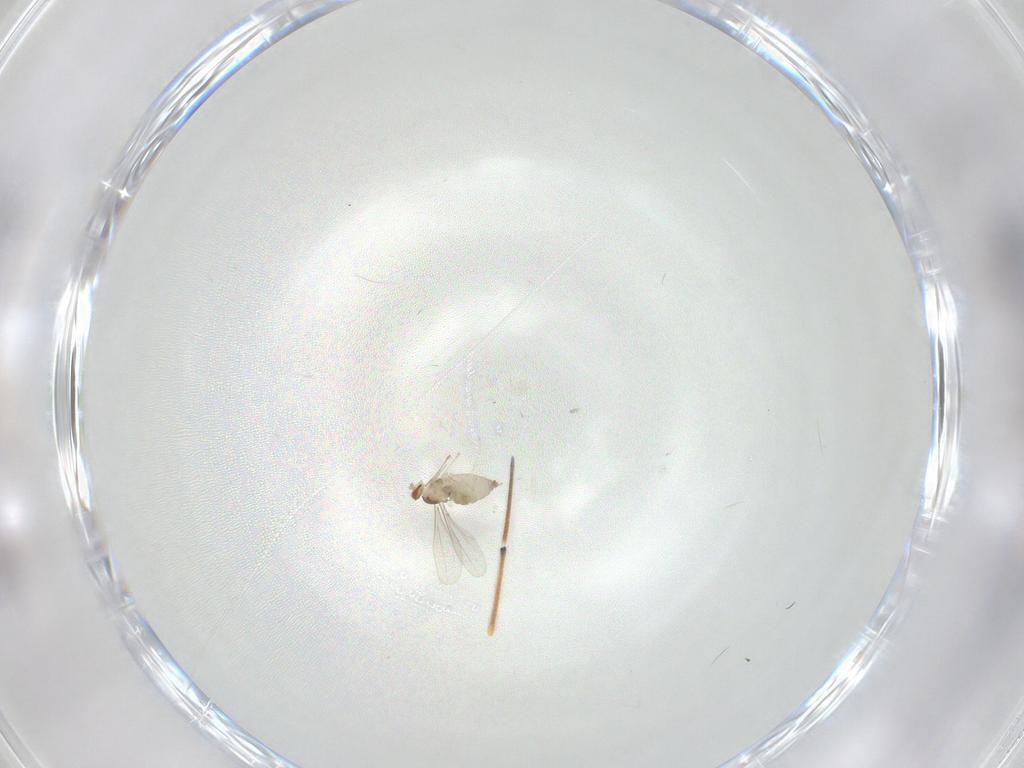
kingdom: Animalia
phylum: Arthropoda
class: Insecta
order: Diptera
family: Cecidomyiidae
